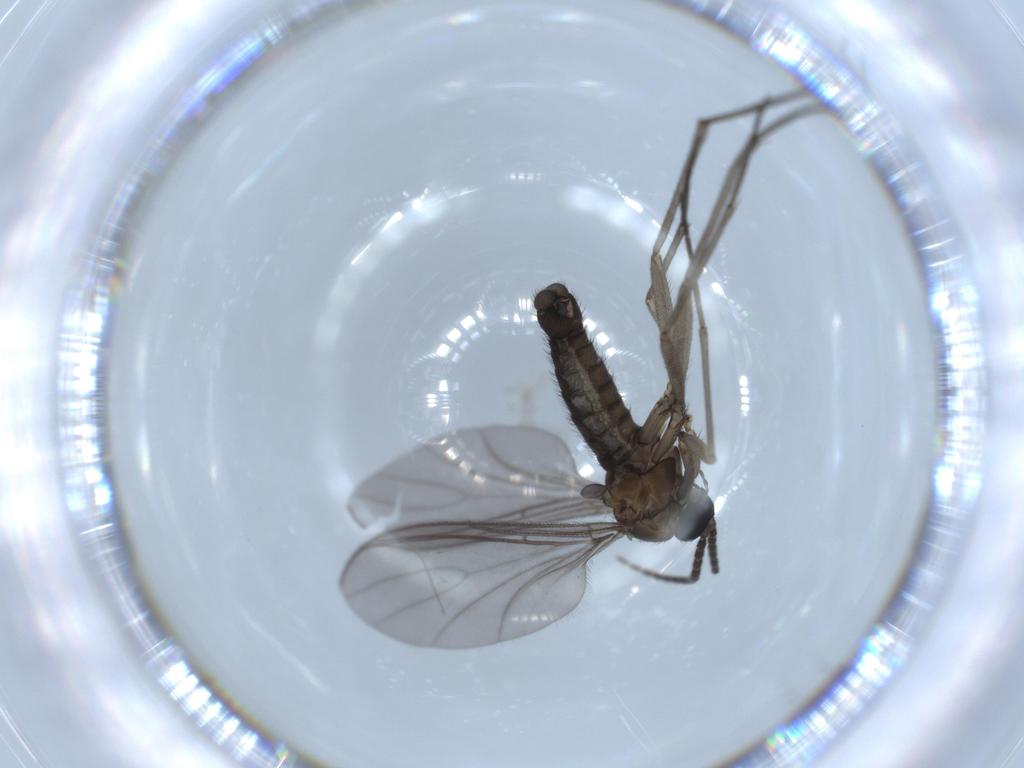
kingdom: Animalia
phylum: Arthropoda
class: Insecta
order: Diptera
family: Sciaridae
